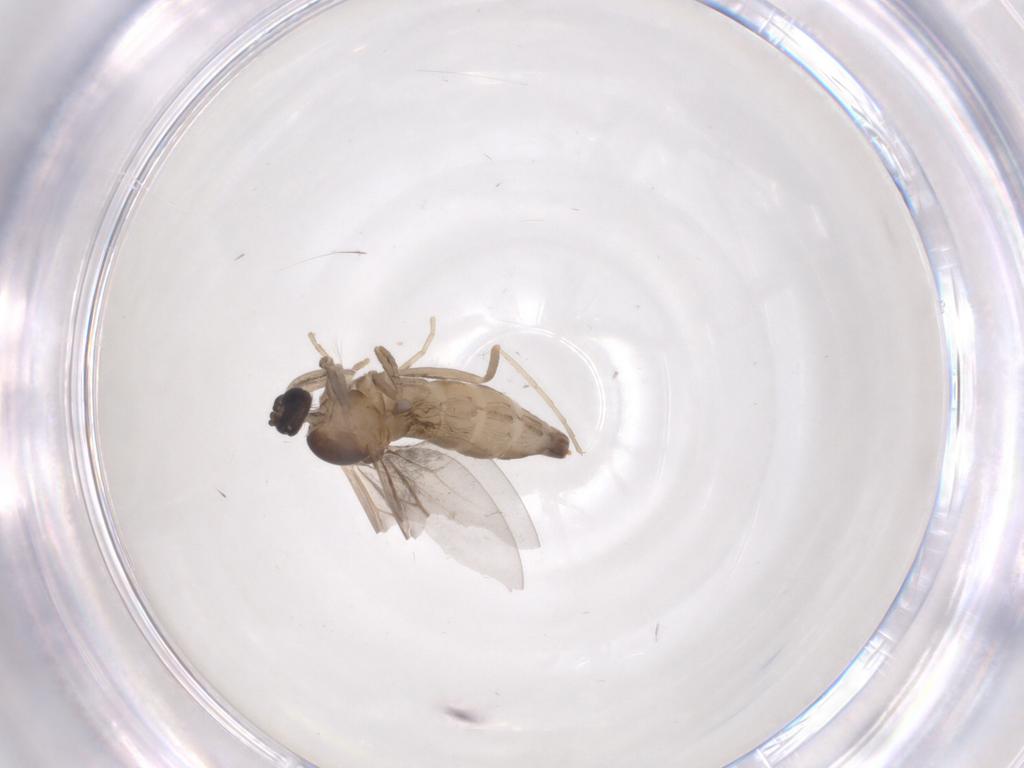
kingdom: Animalia
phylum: Arthropoda
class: Insecta
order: Diptera
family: Cecidomyiidae
